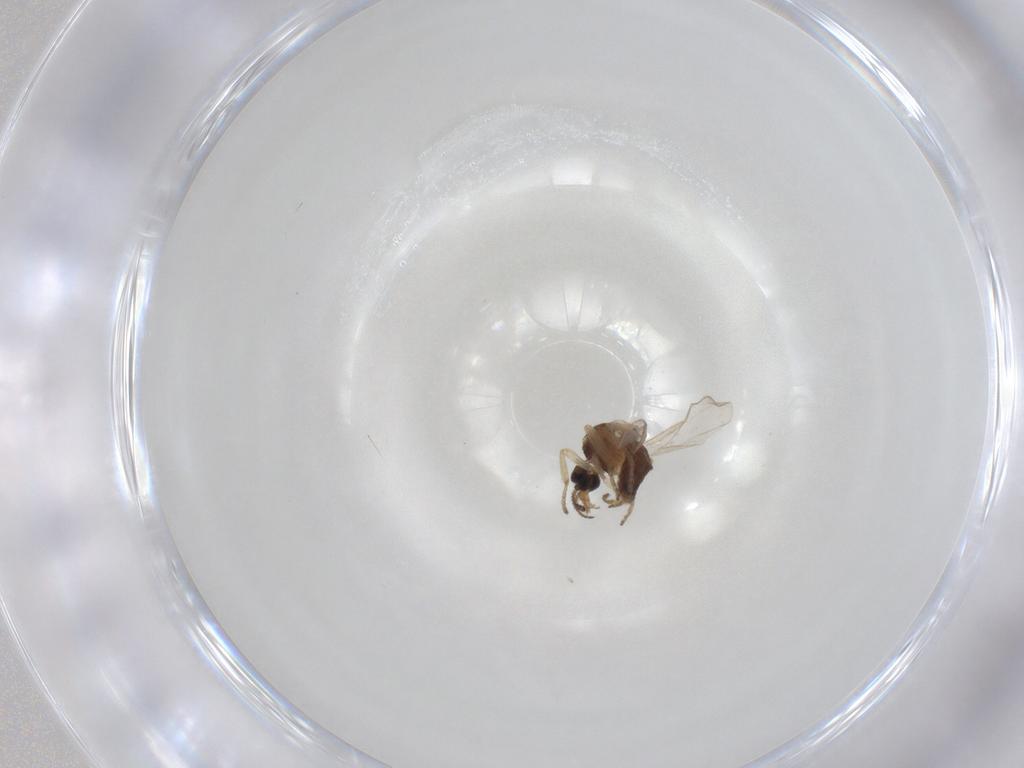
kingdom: Animalia
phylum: Arthropoda
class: Insecta
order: Diptera
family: Ceratopogonidae
